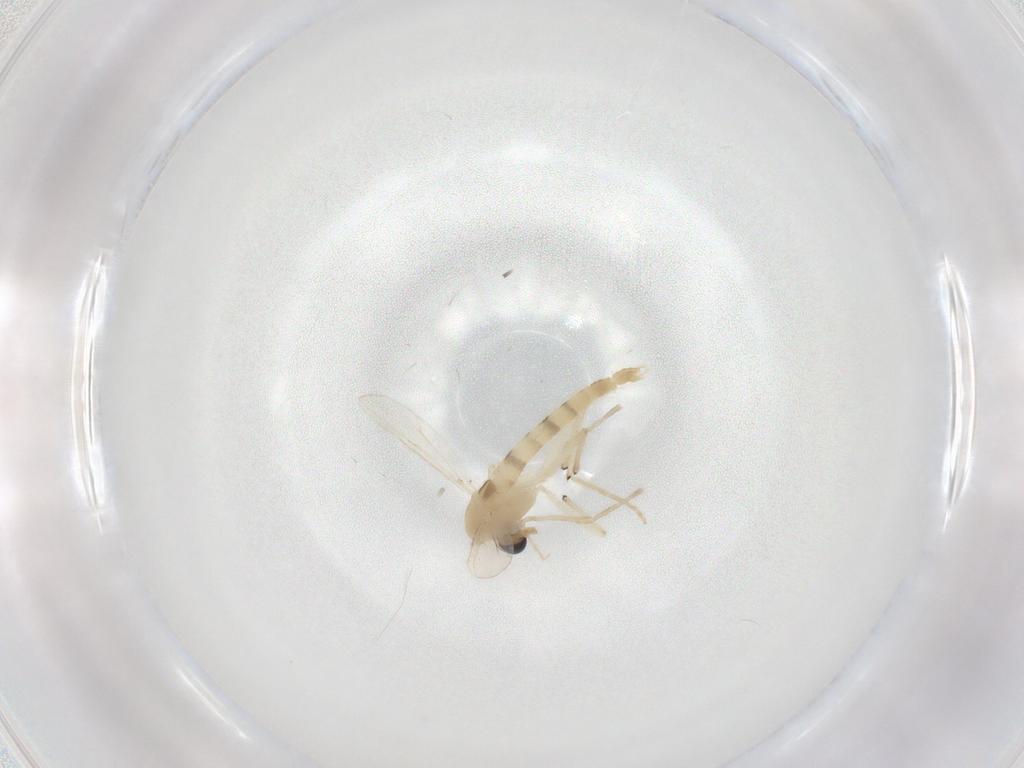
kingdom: Animalia
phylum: Arthropoda
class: Insecta
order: Diptera
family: Chironomidae
